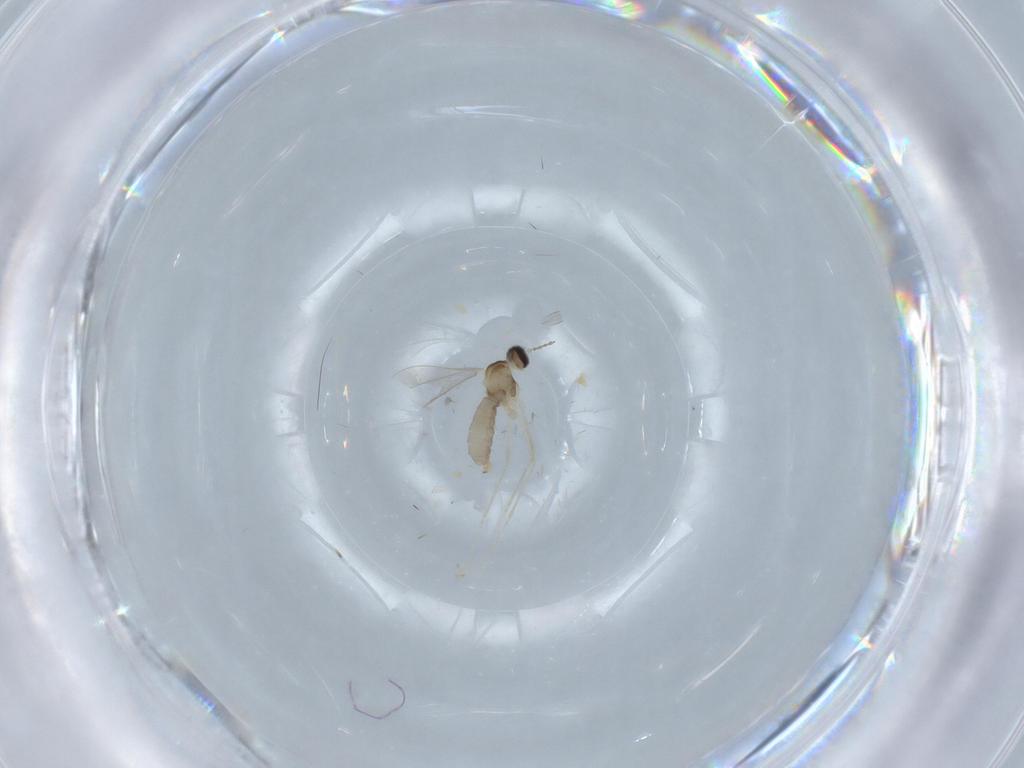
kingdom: Animalia
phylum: Arthropoda
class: Insecta
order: Diptera
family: Cecidomyiidae
